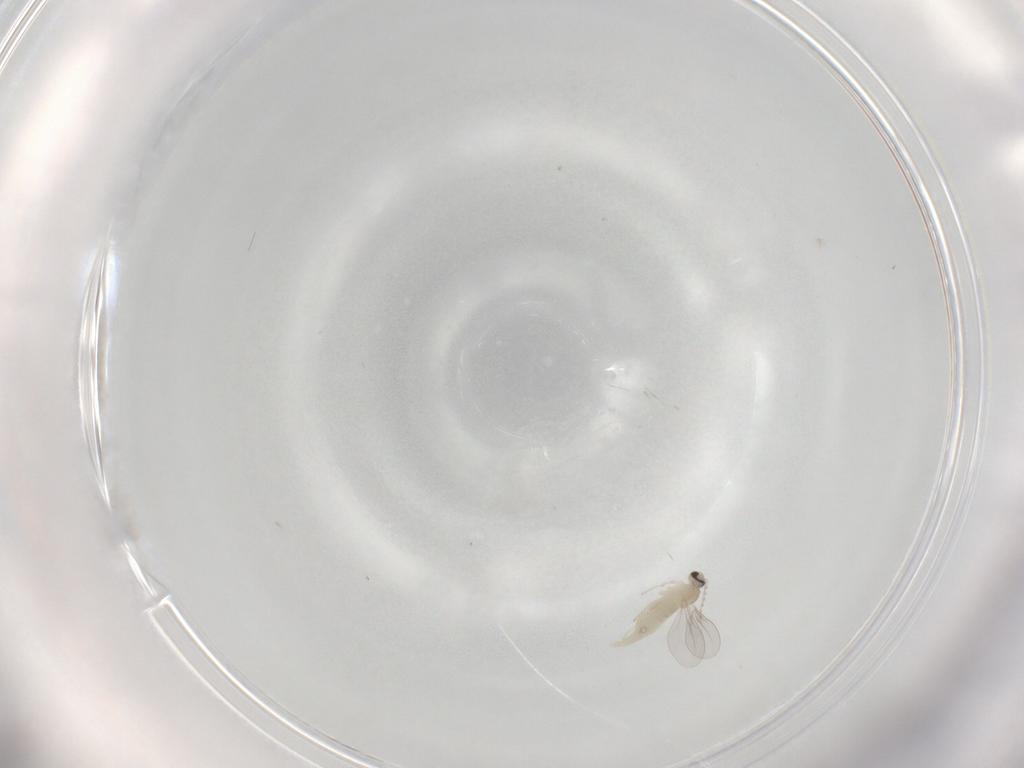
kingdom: Animalia
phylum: Arthropoda
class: Insecta
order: Diptera
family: Cecidomyiidae
